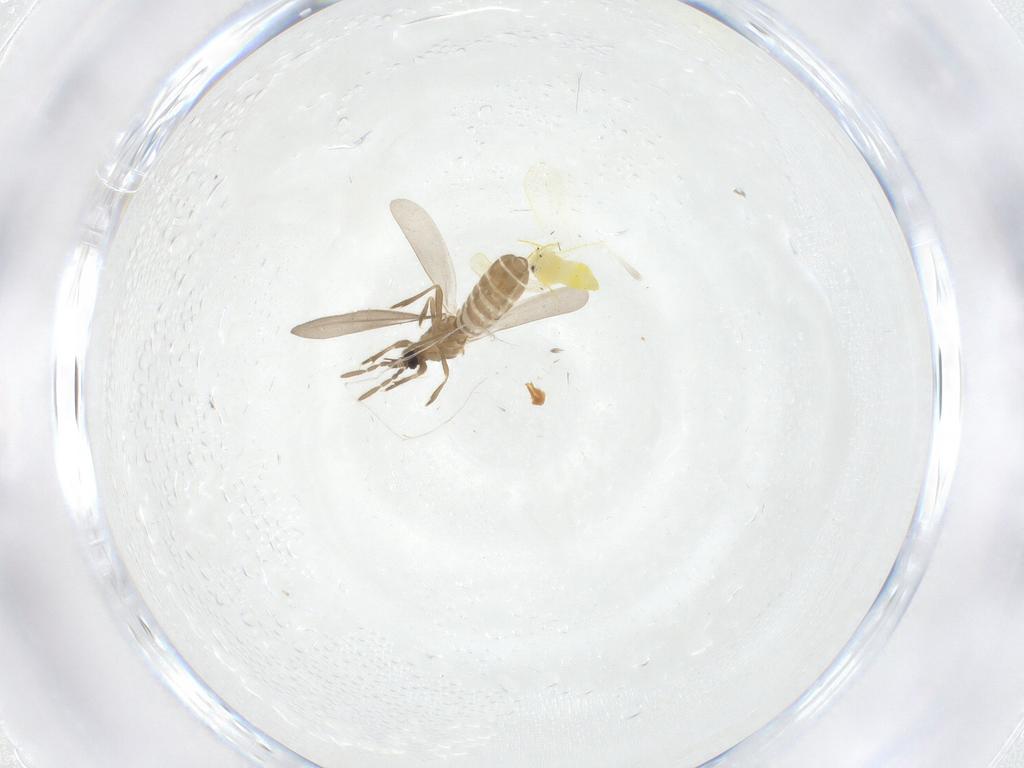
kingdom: Animalia
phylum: Arthropoda
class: Insecta
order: Hemiptera
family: Aleyrodidae
